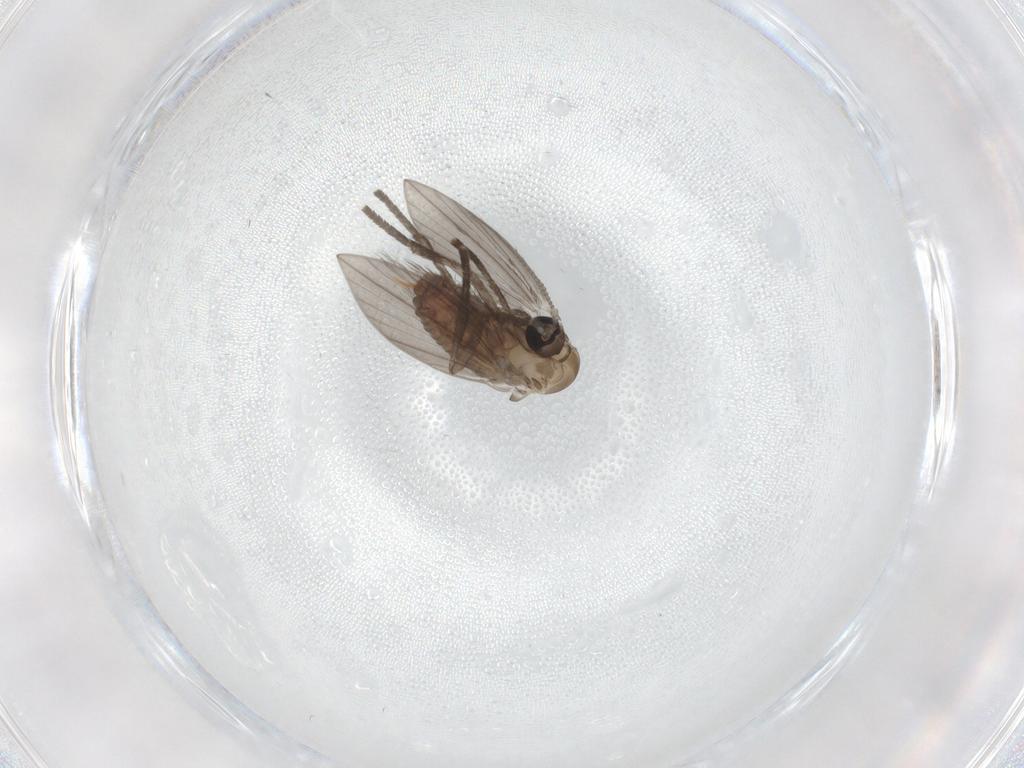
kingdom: Animalia
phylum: Arthropoda
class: Insecta
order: Diptera
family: Psychodidae
